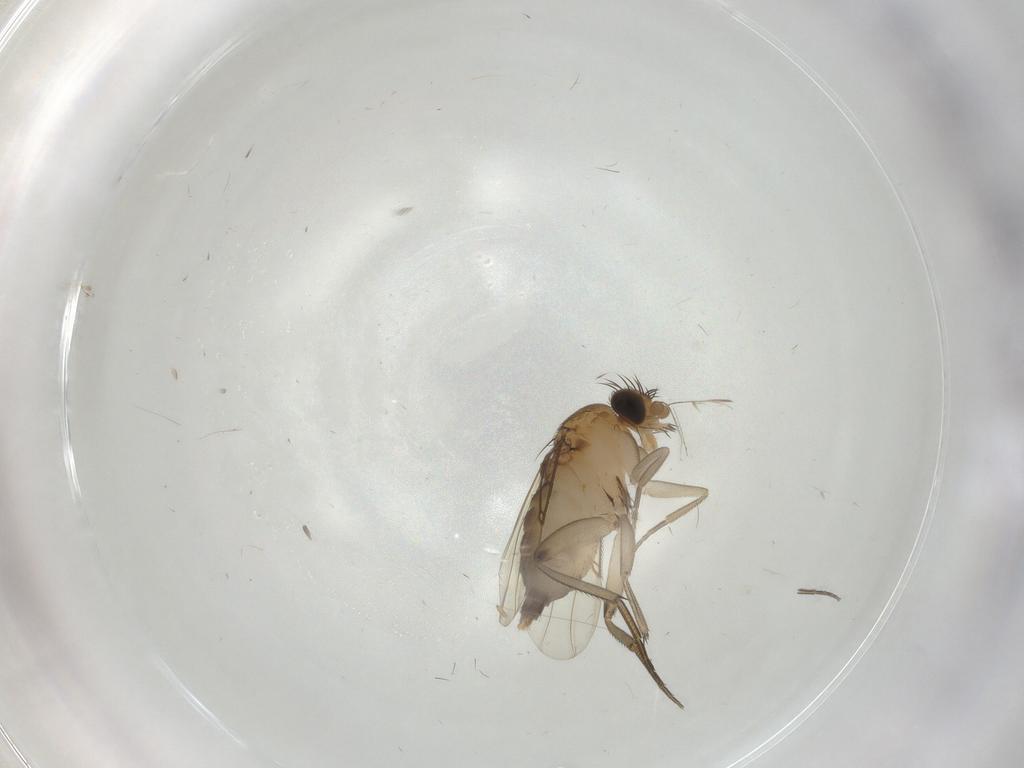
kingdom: Animalia
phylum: Arthropoda
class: Insecta
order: Diptera
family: Phoridae
